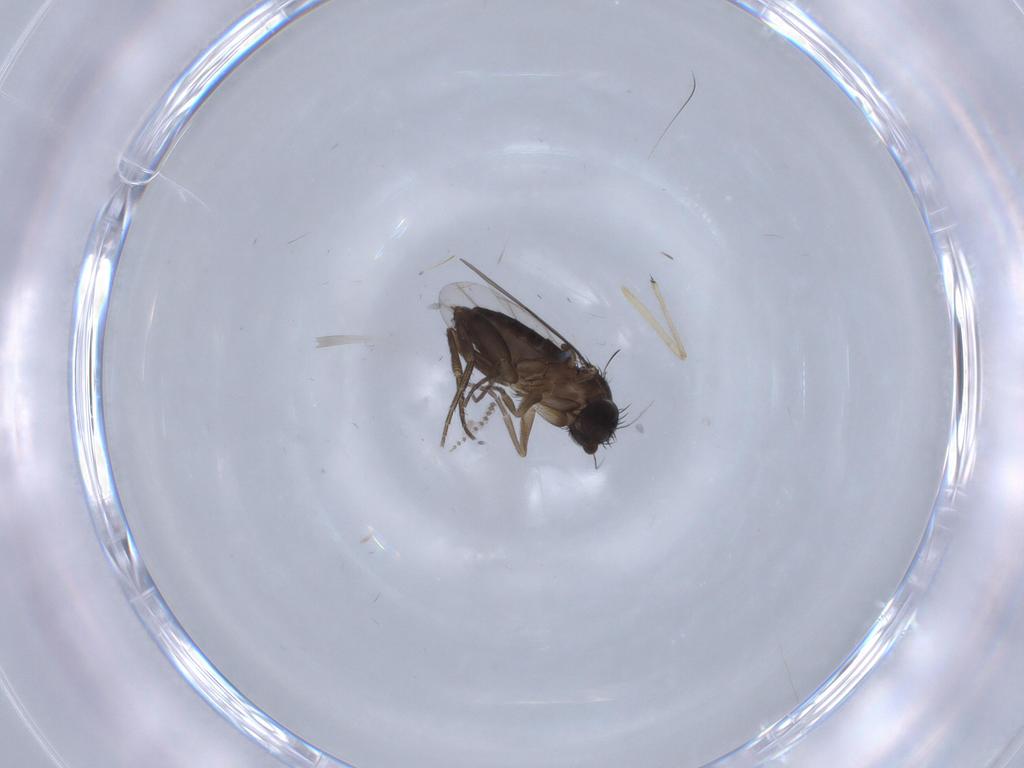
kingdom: Animalia
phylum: Arthropoda
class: Insecta
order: Diptera
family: Phoridae
